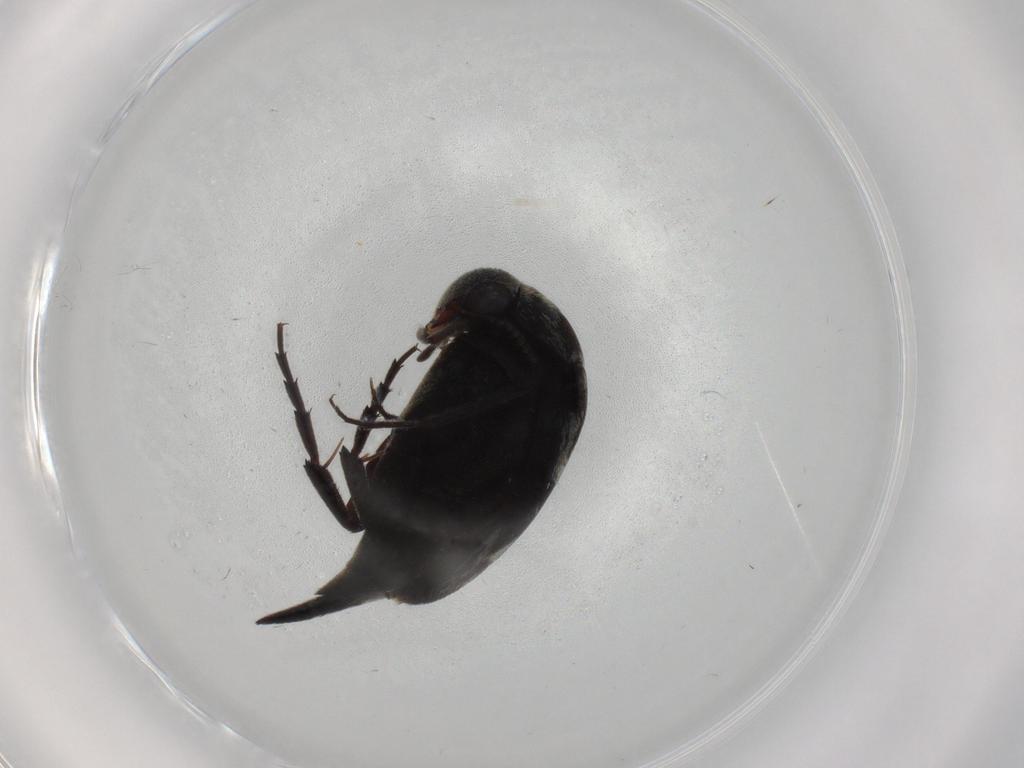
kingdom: Animalia
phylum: Arthropoda
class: Insecta
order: Coleoptera
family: Mordellidae
